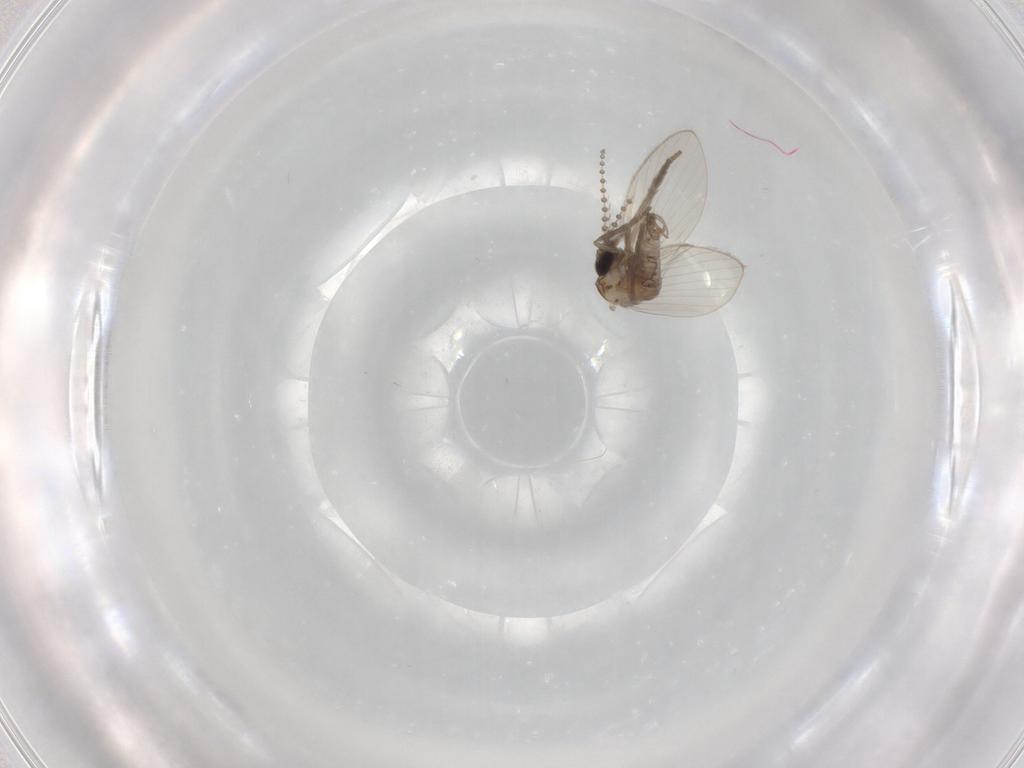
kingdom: Animalia
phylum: Arthropoda
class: Insecta
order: Diptera
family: Psychodidae
